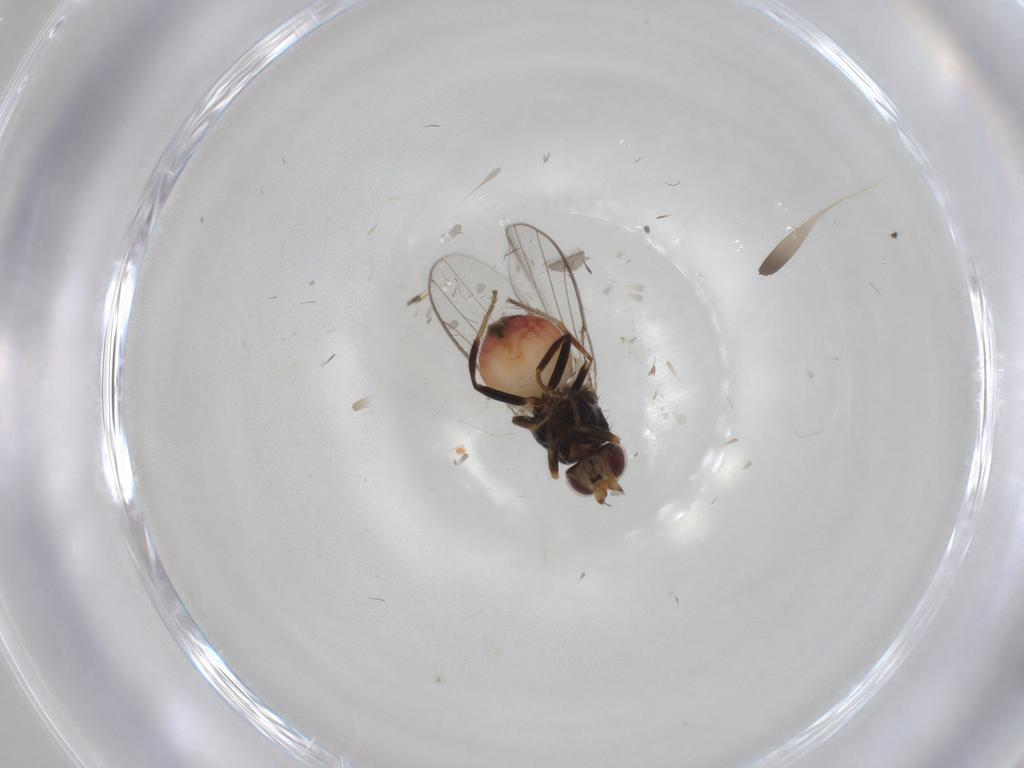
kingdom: Animalia
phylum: Arthropoda
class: Insecta
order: Diptera
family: Chloropidae
